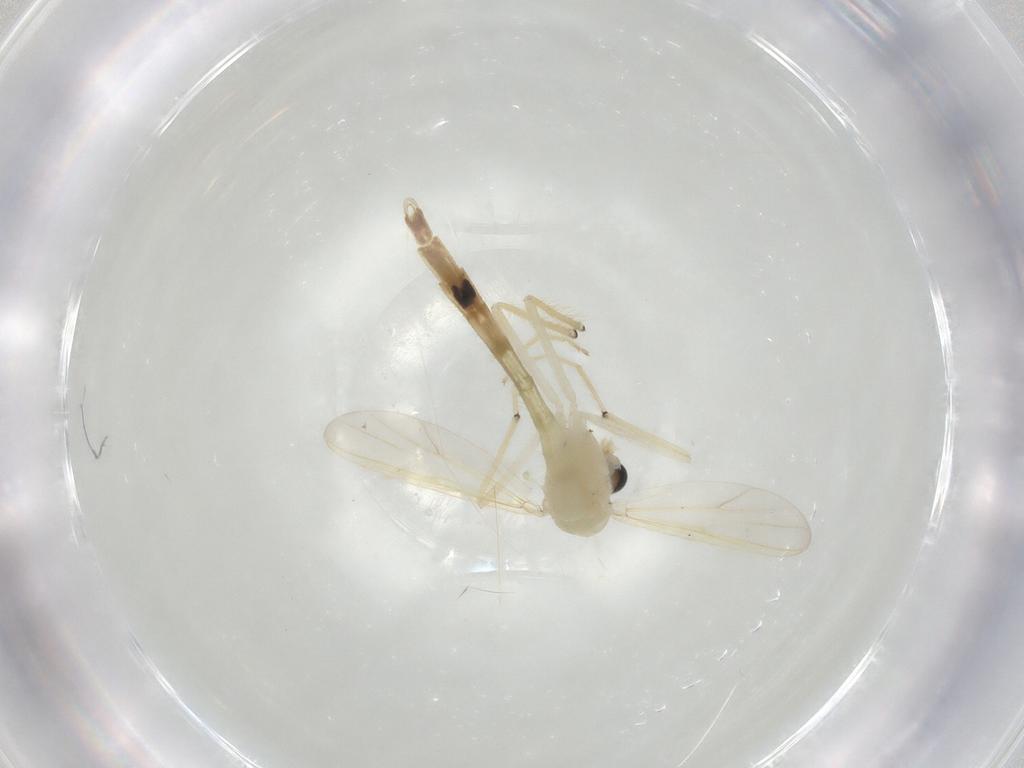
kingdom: Animalia
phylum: Arthropoda
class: Insecta
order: Diptera
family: Chironomidae
